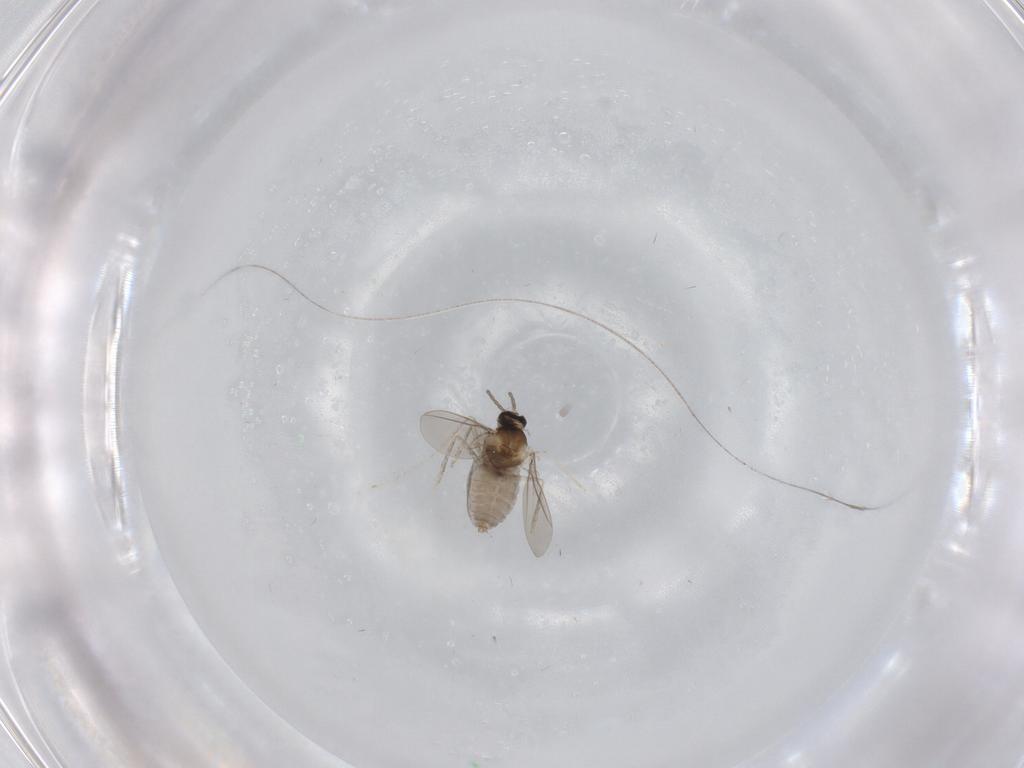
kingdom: Animalia
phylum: Arthropoda
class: Insecta
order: Diptera
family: Cecidomyiidae
